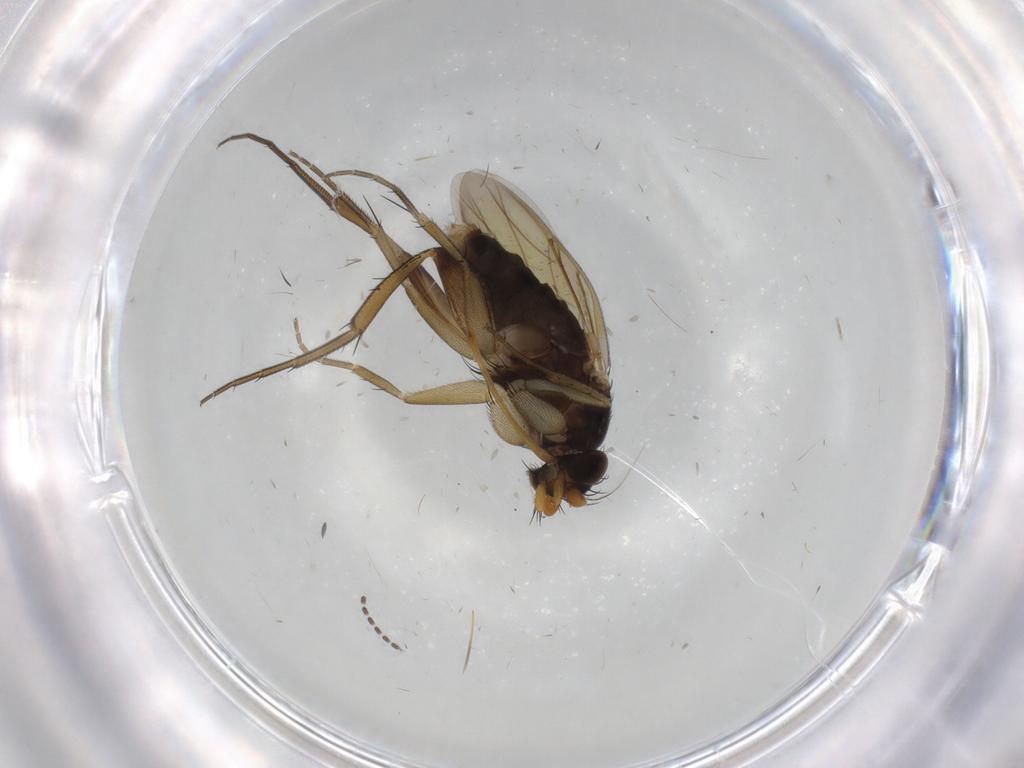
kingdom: Animalia
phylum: Arthropoda
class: Insecta
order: Diptera
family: Phoridae
